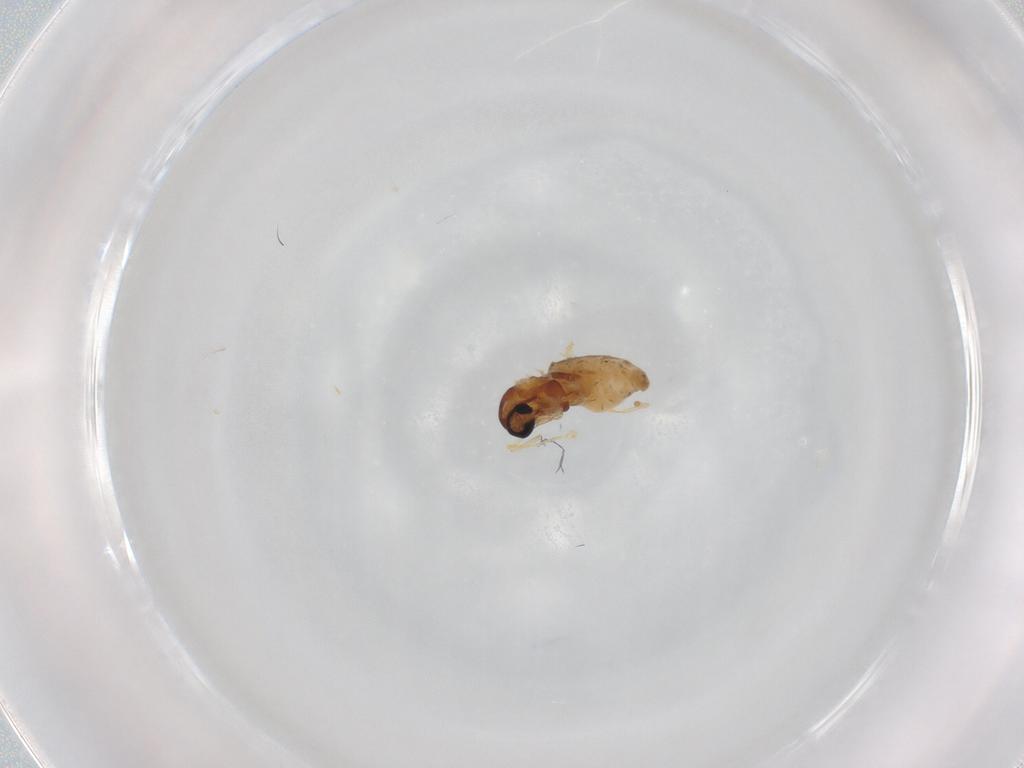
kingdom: Animalia
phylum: Arthropoda
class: Insecta
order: Diptera
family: Cecidomyiidae
